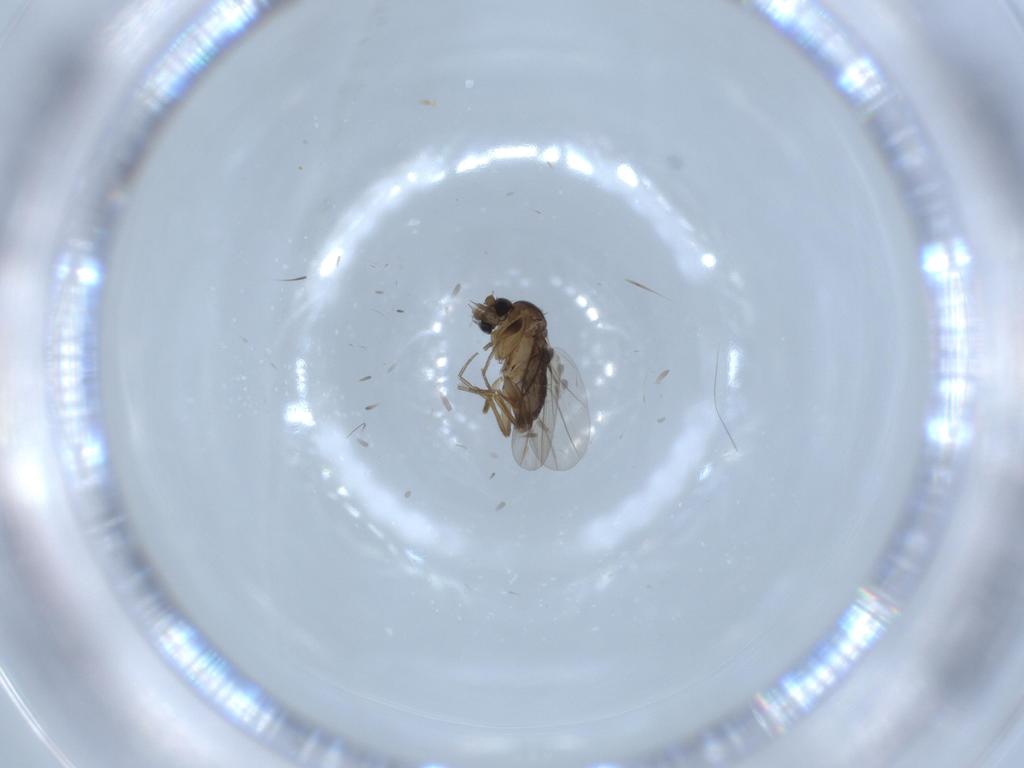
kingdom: Animalia
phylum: Arthropoda
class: Insecta
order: Diptera
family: Phoridae
